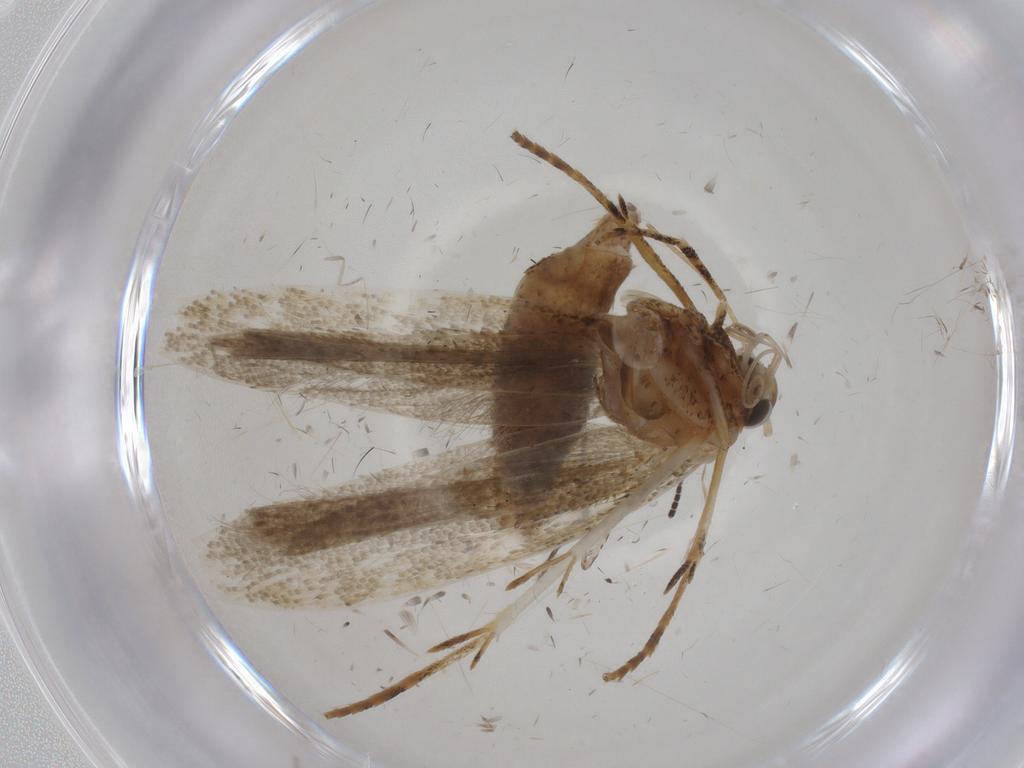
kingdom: Animalia
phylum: Arthropoda
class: Insecta
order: Lepidoptera
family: Crambidae
